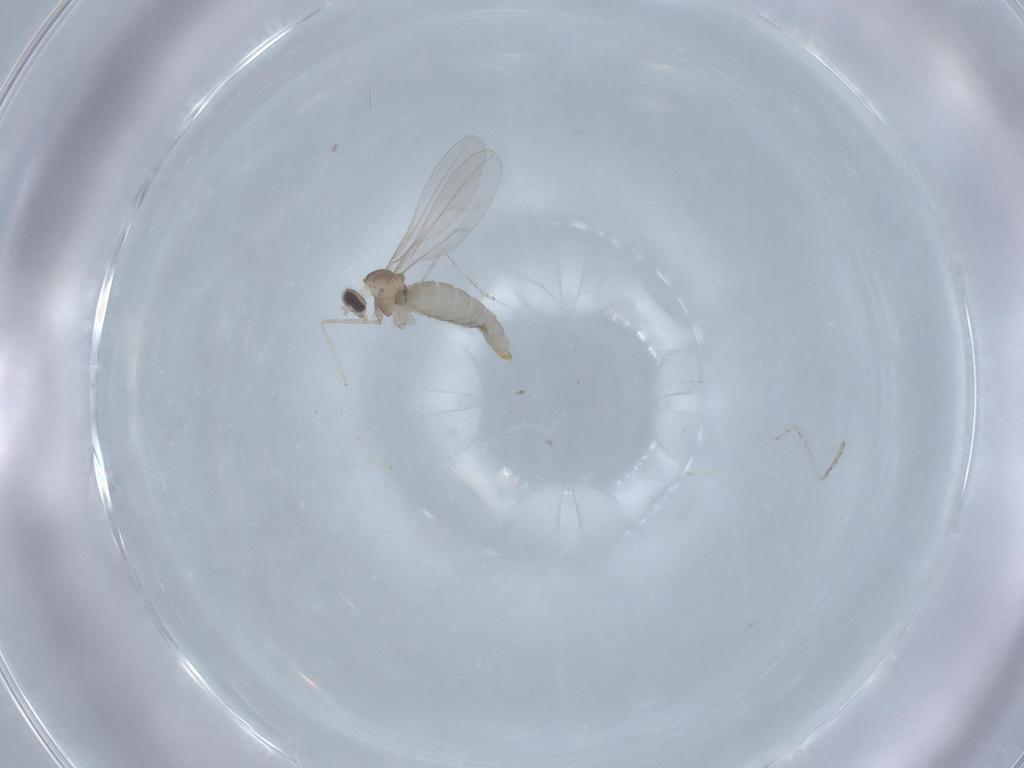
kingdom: Animalia
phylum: Arthropoda
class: Insecta
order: Diptera
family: Cecidomyiidae
